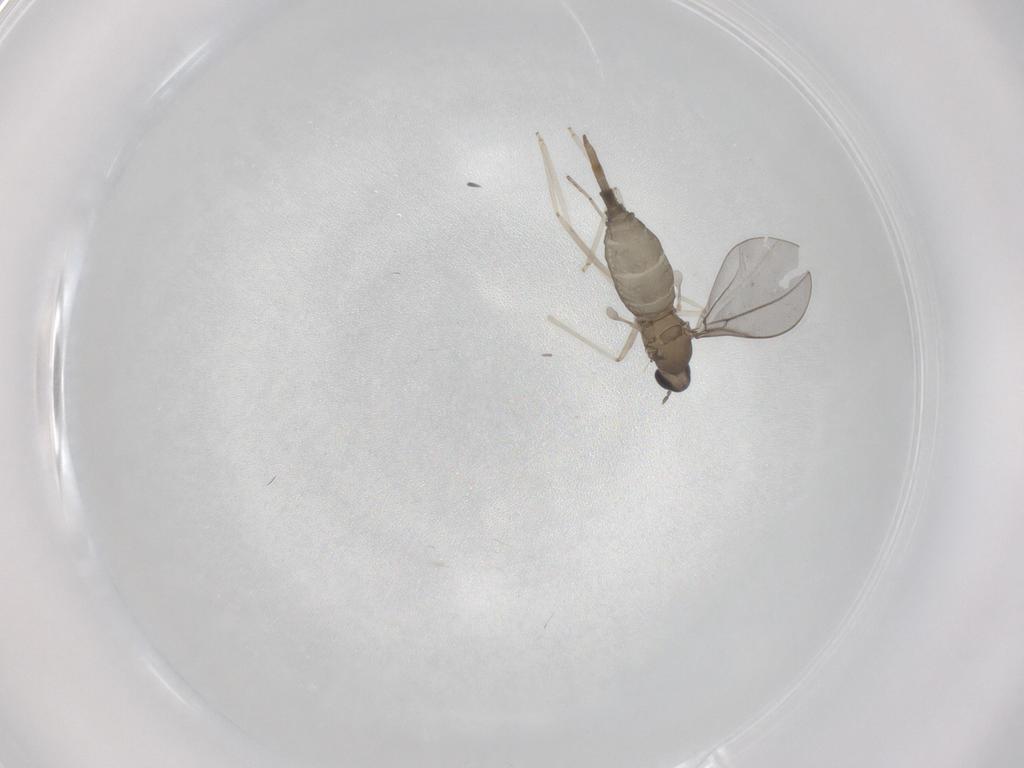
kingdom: Animalia
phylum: Arthropoda
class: Insecta
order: Diptera
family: Cecidomyiidae
